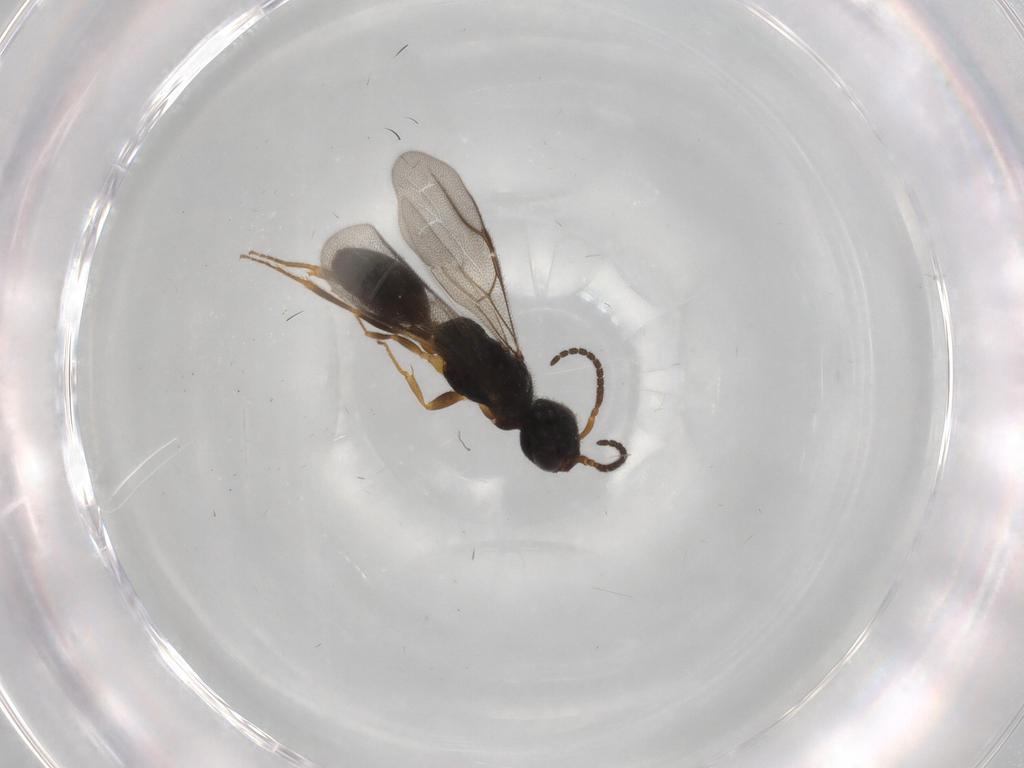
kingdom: Animalia
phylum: Arthropoda
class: Insecta
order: Hymenoptera
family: Bethylidae
